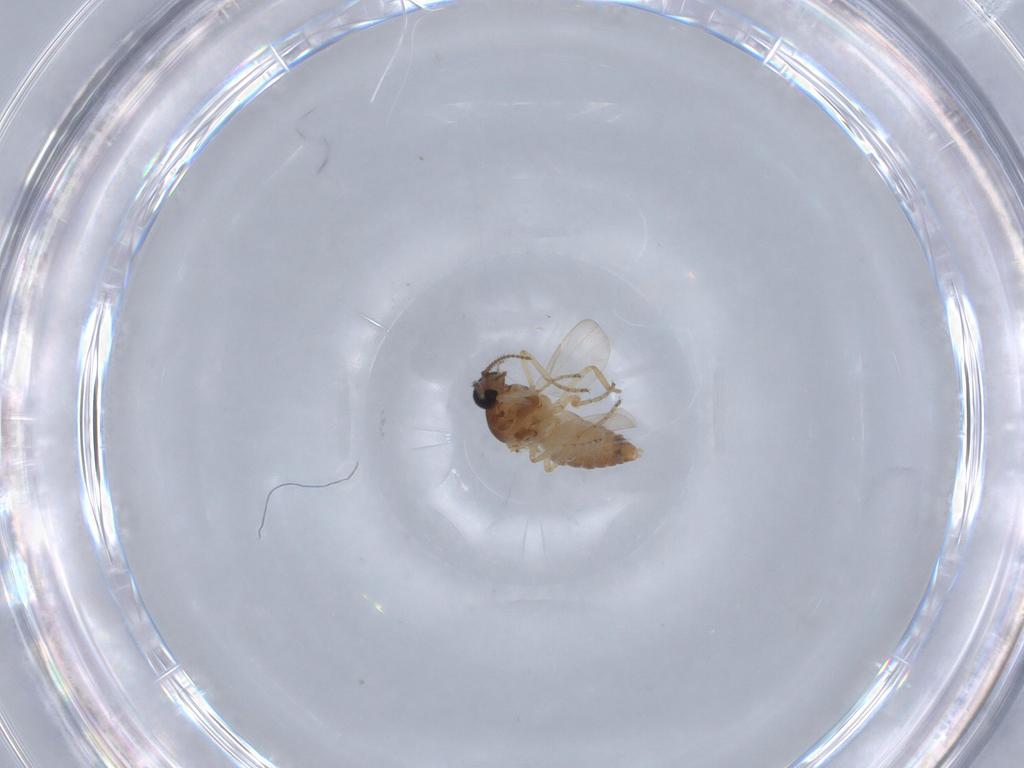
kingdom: Animalia
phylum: Arthropoda
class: Insecta
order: Diptera
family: Ceratopogonidae
